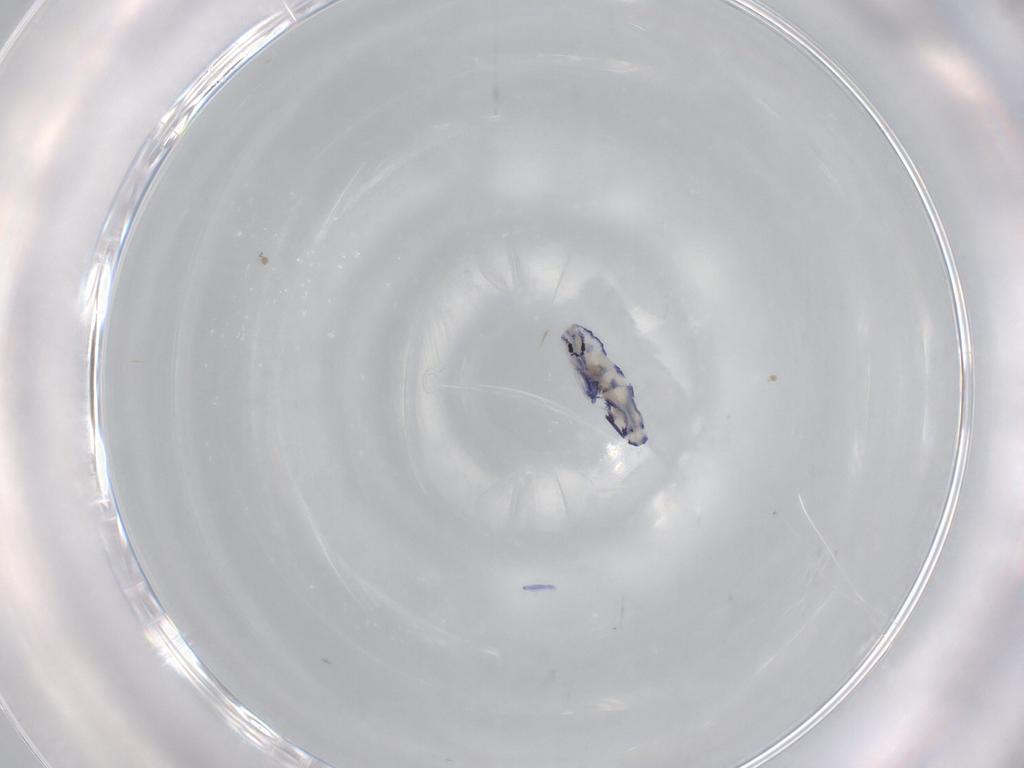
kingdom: Animalia
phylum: Arthropoda
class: Collembola
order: Entomobryomorpha
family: Entomobryidae
